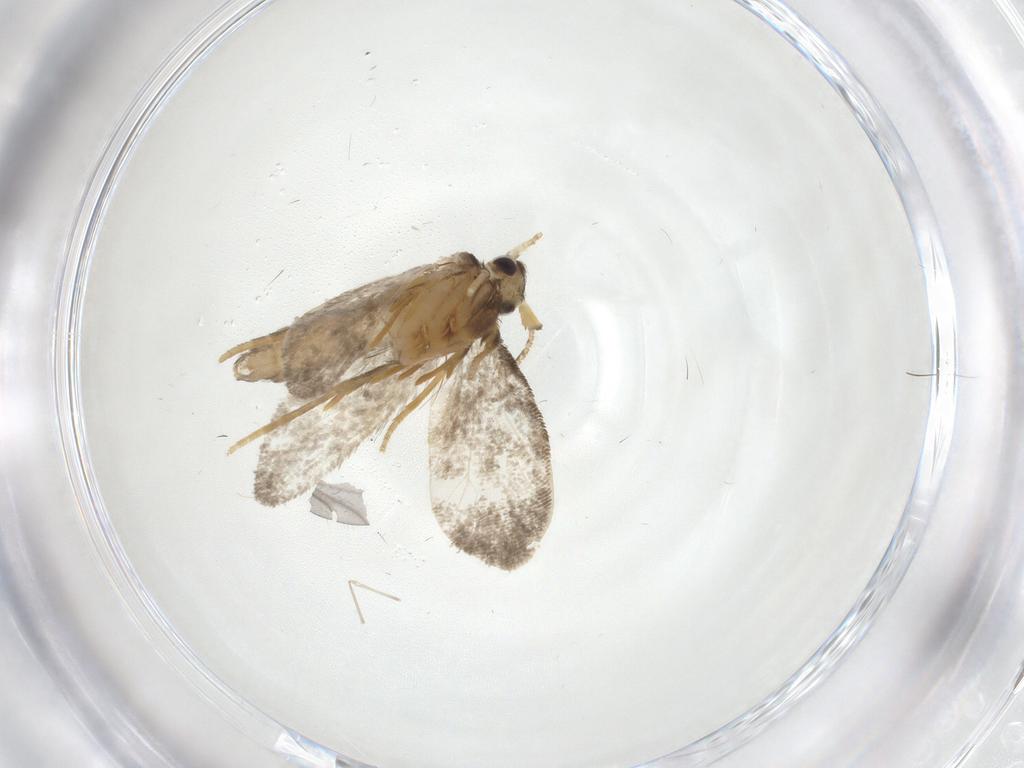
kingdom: Animalia
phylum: Arthropoda
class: Insecta
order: Lepidoptera
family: Psychidae
